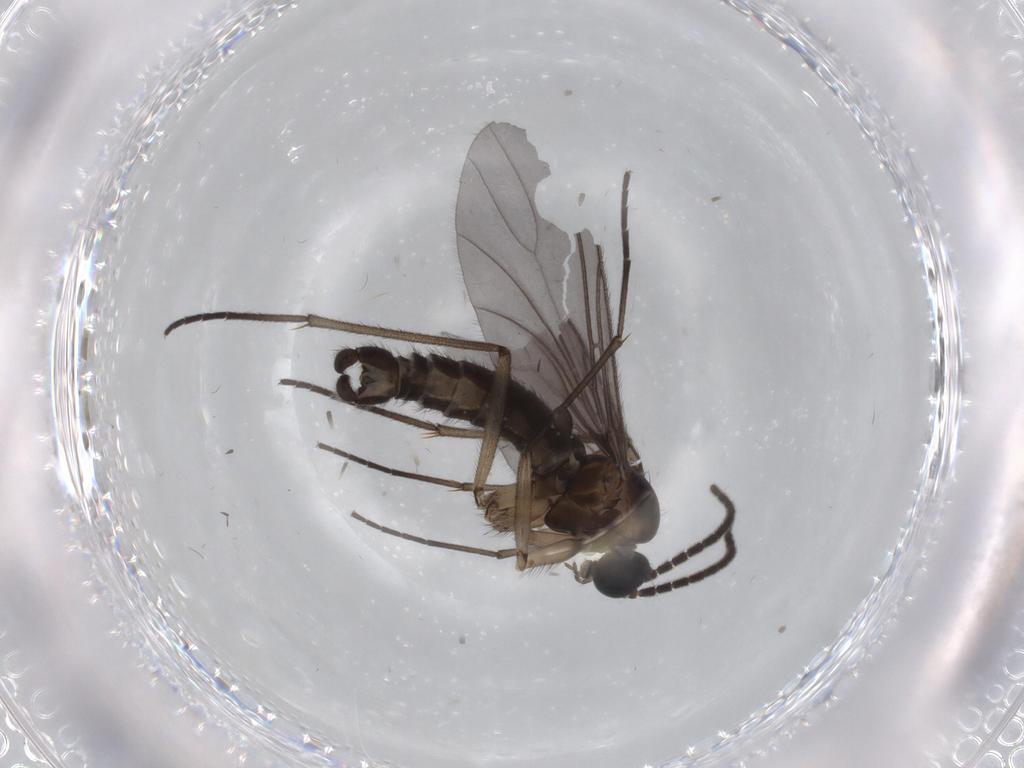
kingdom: Animalia
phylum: Arthropoda
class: Insecta
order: Diptera
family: Sciaridae
